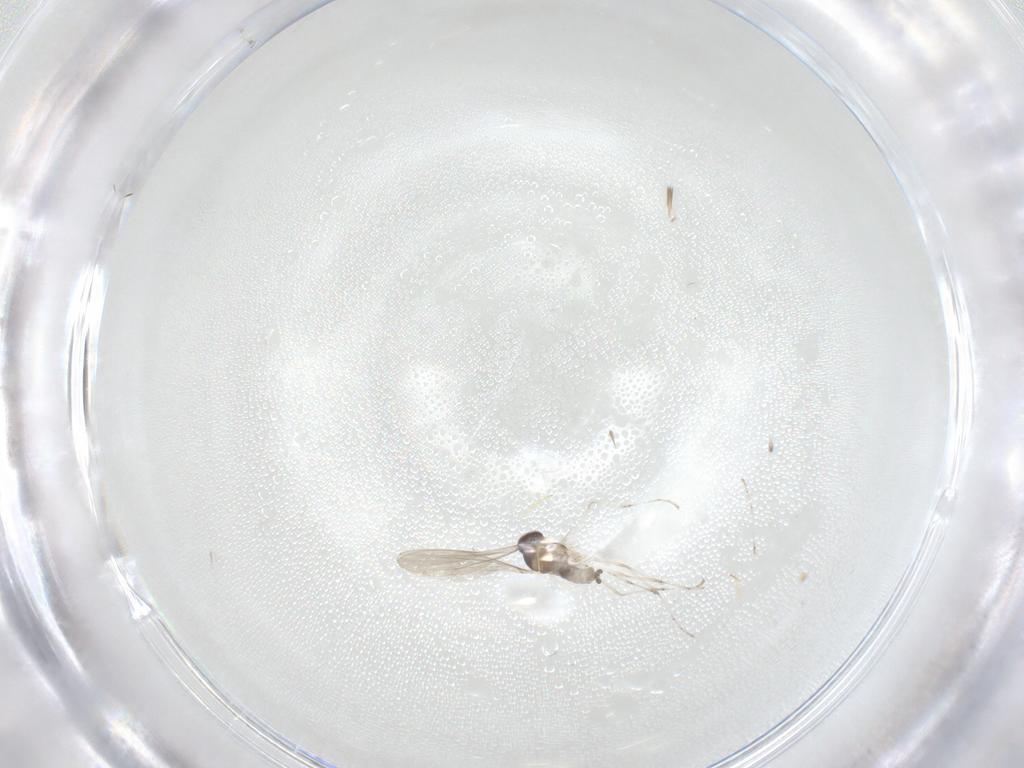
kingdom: Animalia
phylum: Arthropoda
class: Insecta
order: Diptera
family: Cecidomyiidae
